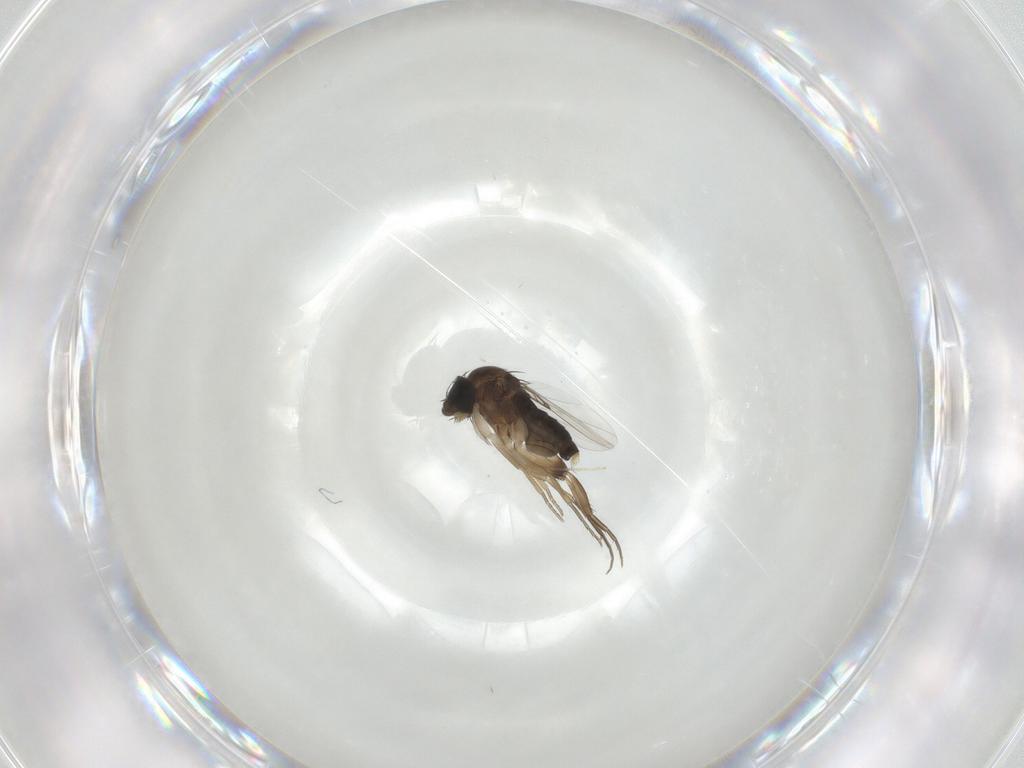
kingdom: Animalia
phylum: Arthropoda
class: Insecta
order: Diptera
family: Phoridae
